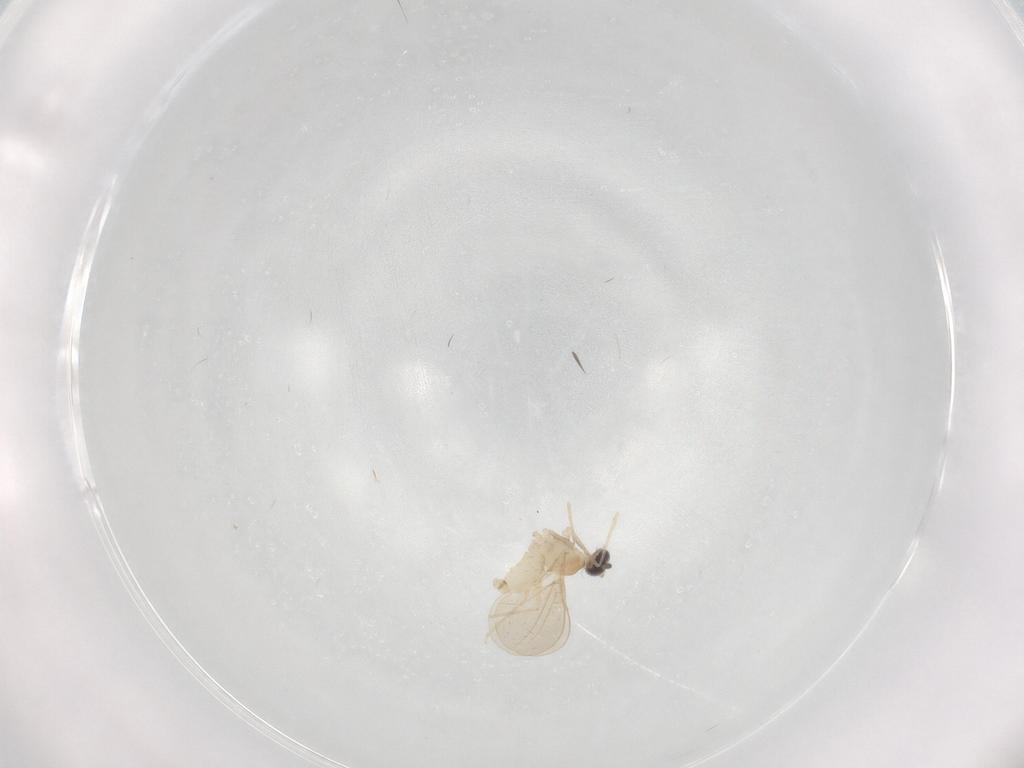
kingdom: Animalia
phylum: Arthropoda
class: Insecta
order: Diptera
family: Cecidomyiidae
